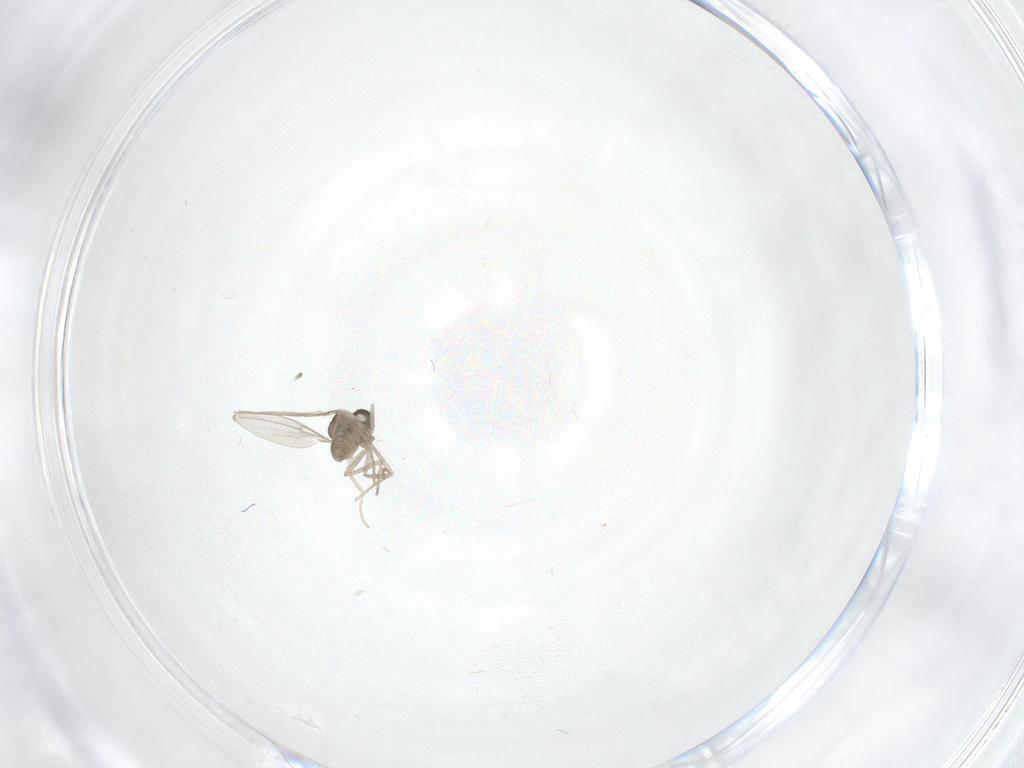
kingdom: Animalia
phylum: Arthropoda
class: Insecta
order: Diptera
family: Cecidomyiidae
